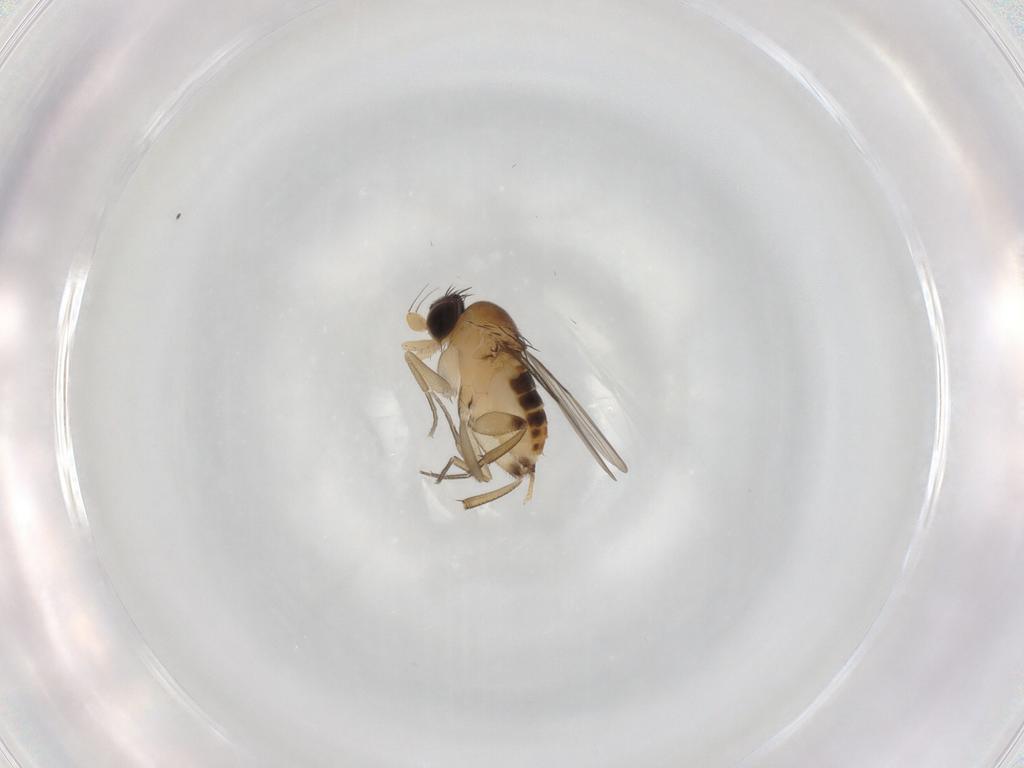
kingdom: Animalia
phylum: Arthropoda
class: Insecta
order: Diptera
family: Phoridae
